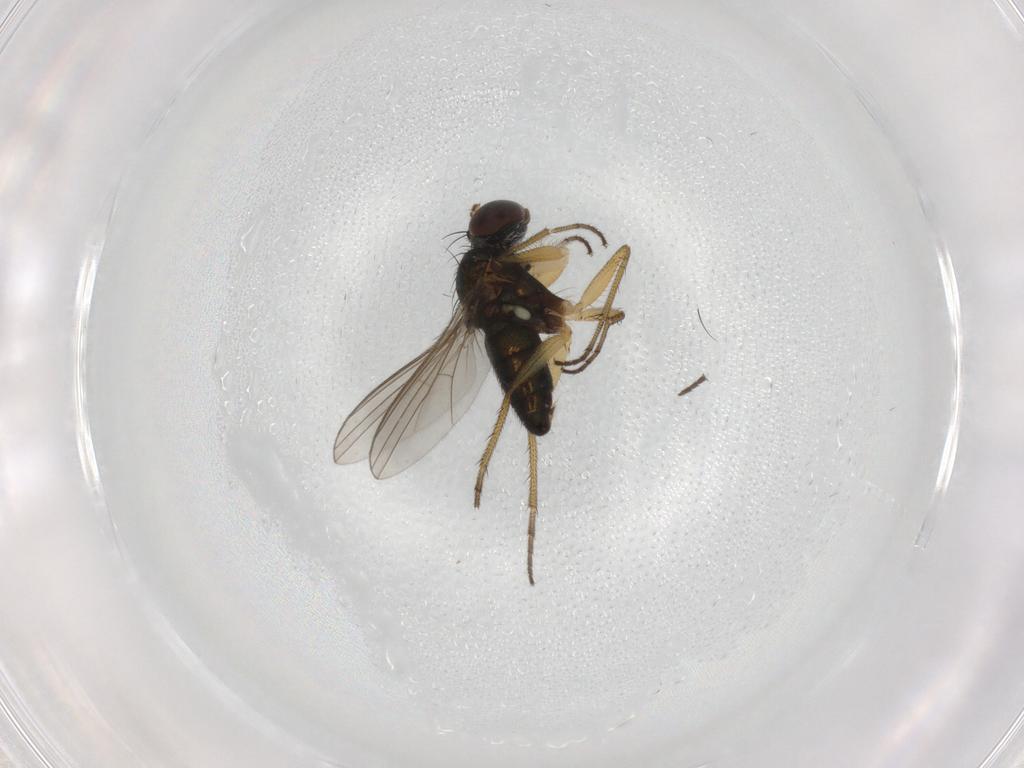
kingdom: Animalia
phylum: Arthropoda
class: Insecta
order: Diptera
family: Dolichopodidae
